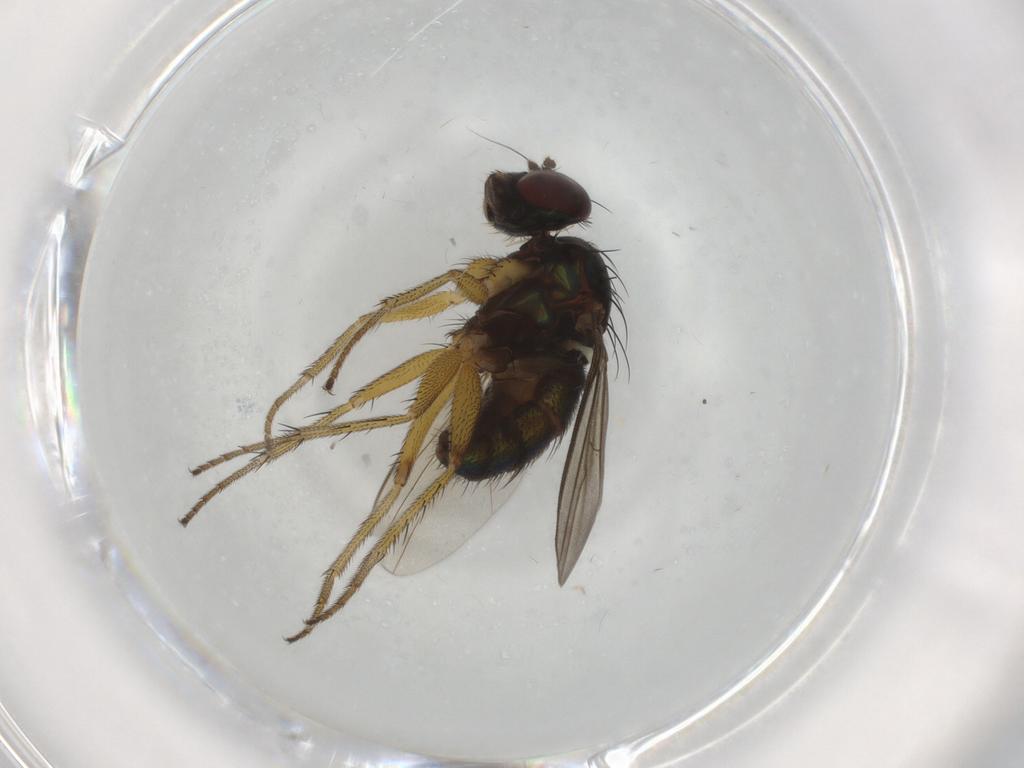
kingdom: Animalia
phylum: Arthropoda
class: Insecta
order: Diptera
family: Dolichopodidae
